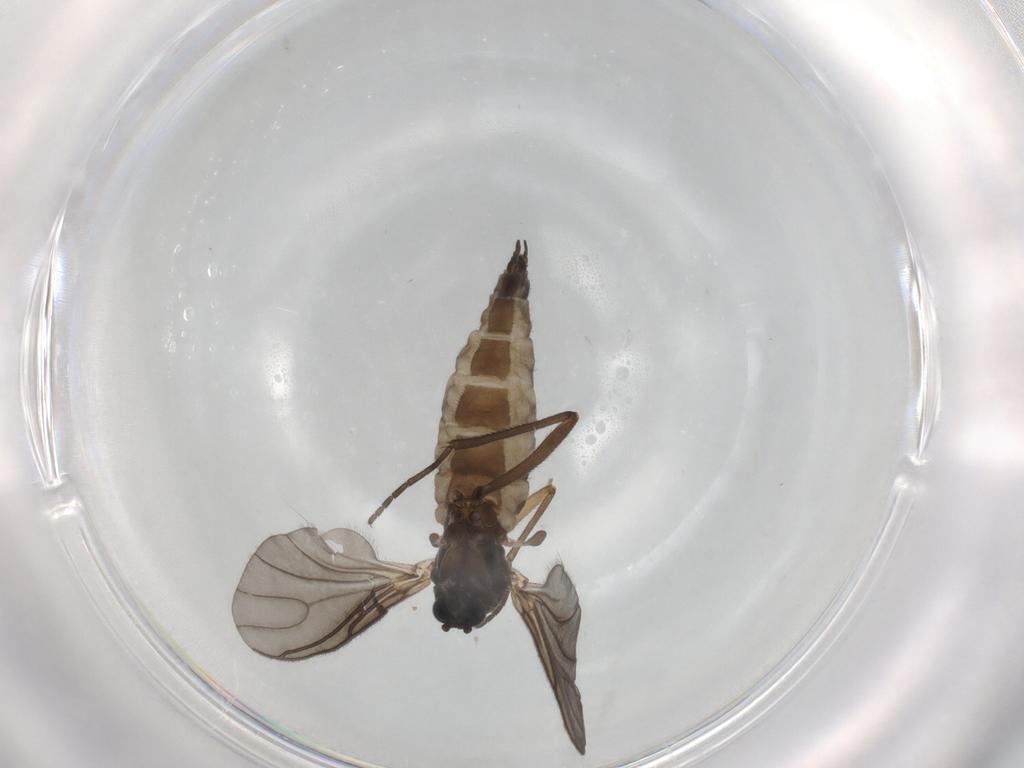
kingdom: Animalia
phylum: Arthropoda
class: Insecta
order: Diptera
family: Sciaridae
